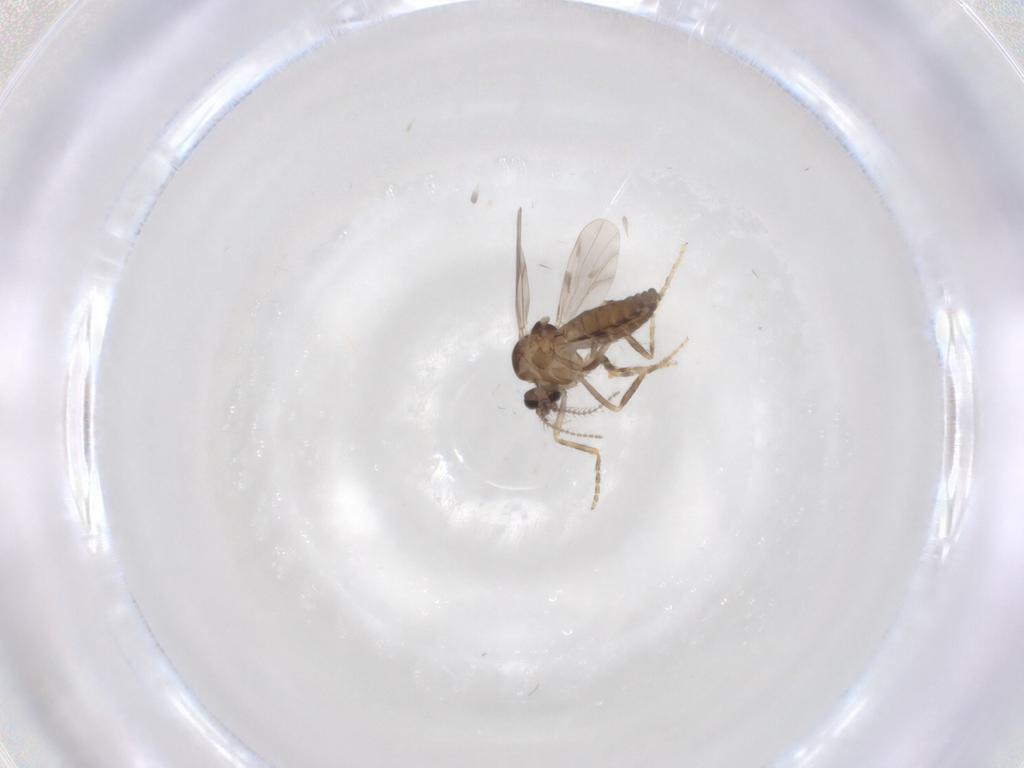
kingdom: Animalia
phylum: Arthropoda
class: Insecta
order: Diptera
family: Ceratopogonidae
